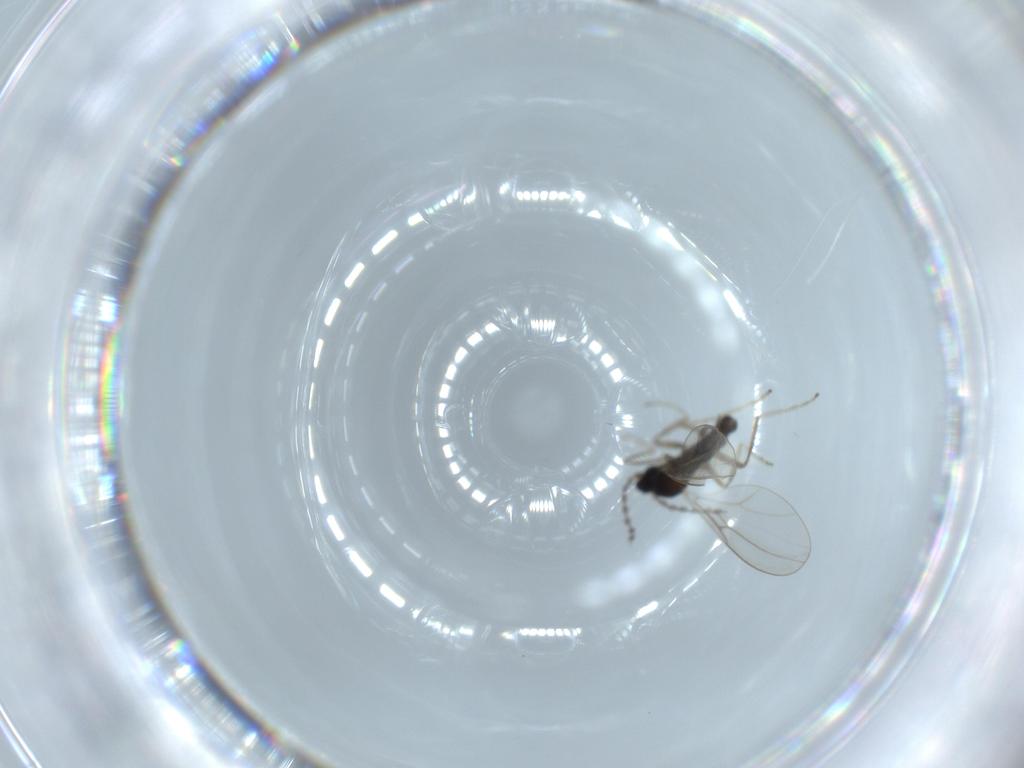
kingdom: Animalia
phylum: Arthropoda
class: Insecta
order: Diptera
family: Cecidomyiidae
